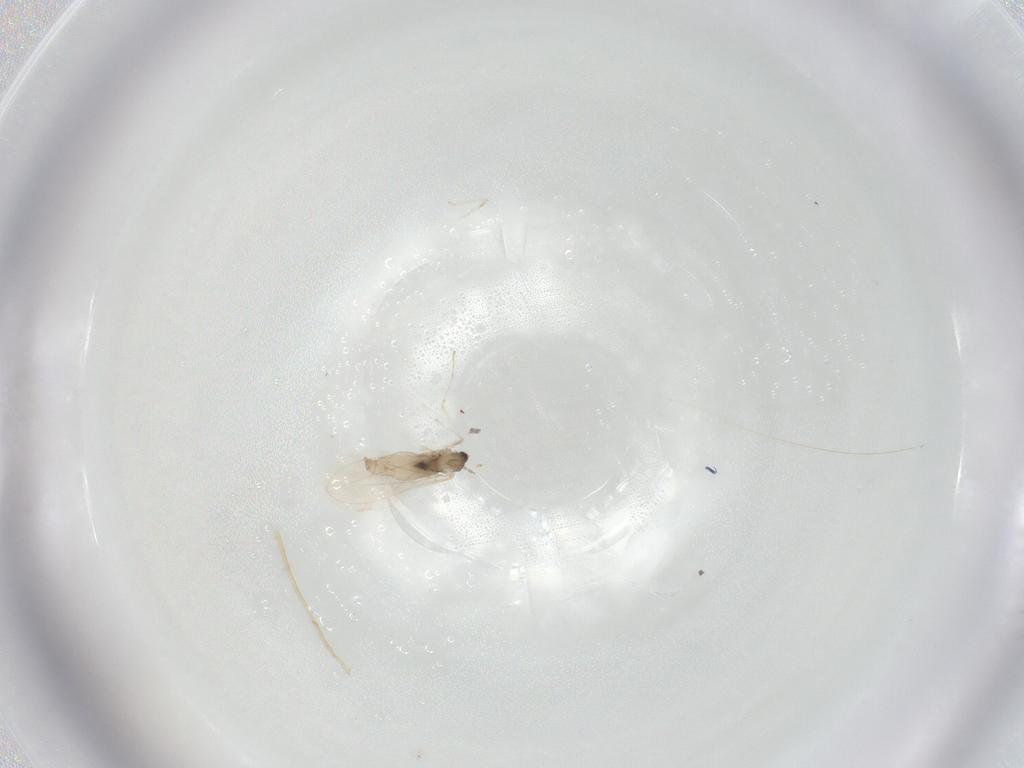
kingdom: Animalia
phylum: Arthropoda
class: Insecta
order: Diptera
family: Cecidomyiidae
